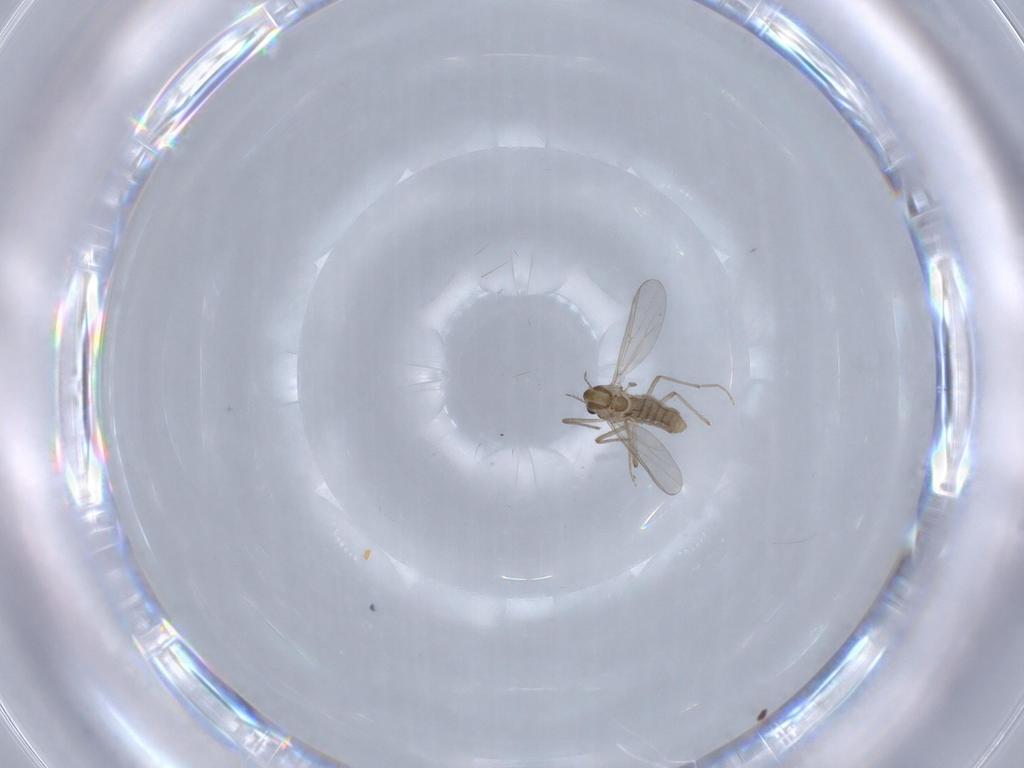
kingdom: Animalia
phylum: Arthropoda
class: Insecta
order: Diptera
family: Chironomidae
